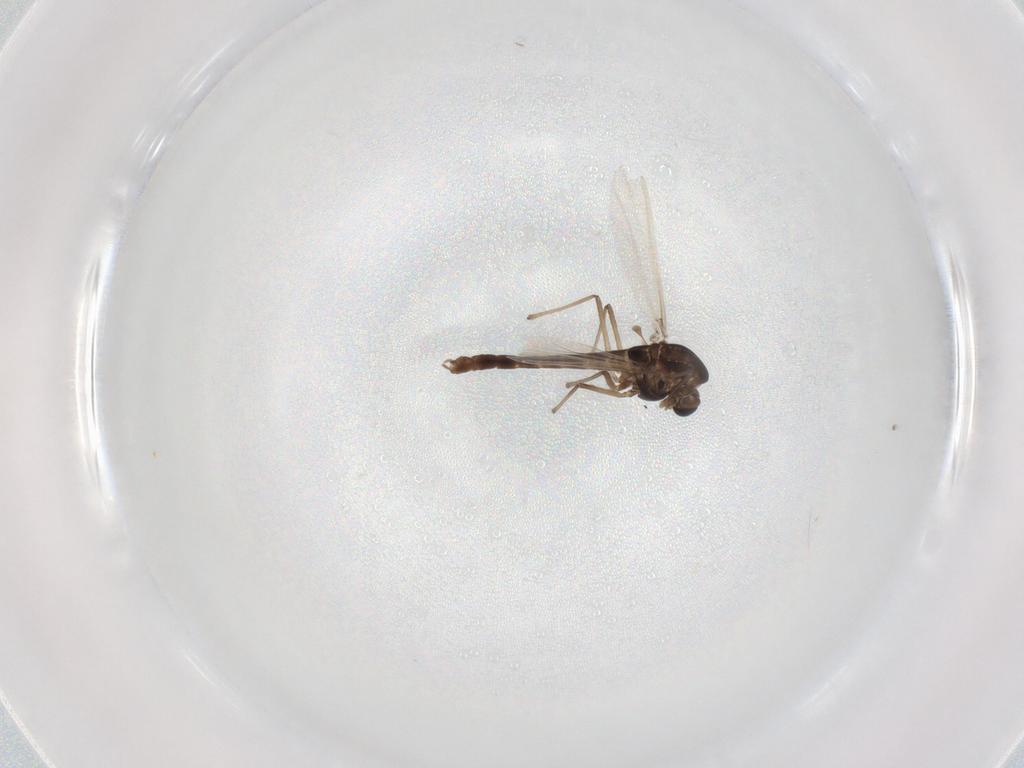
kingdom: Animalia
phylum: Arthropoda
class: Insecta
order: Diptera
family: Chironomidae
